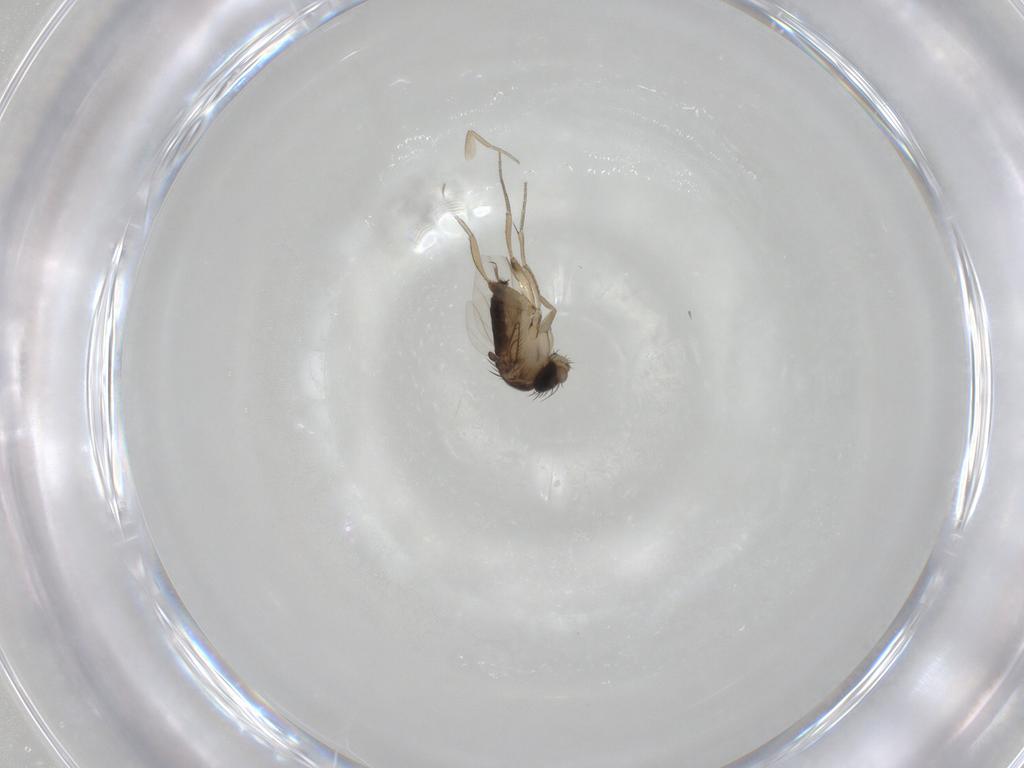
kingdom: Animalia
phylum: Arthropoda
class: Insecta
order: Diptera
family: Phoridae
